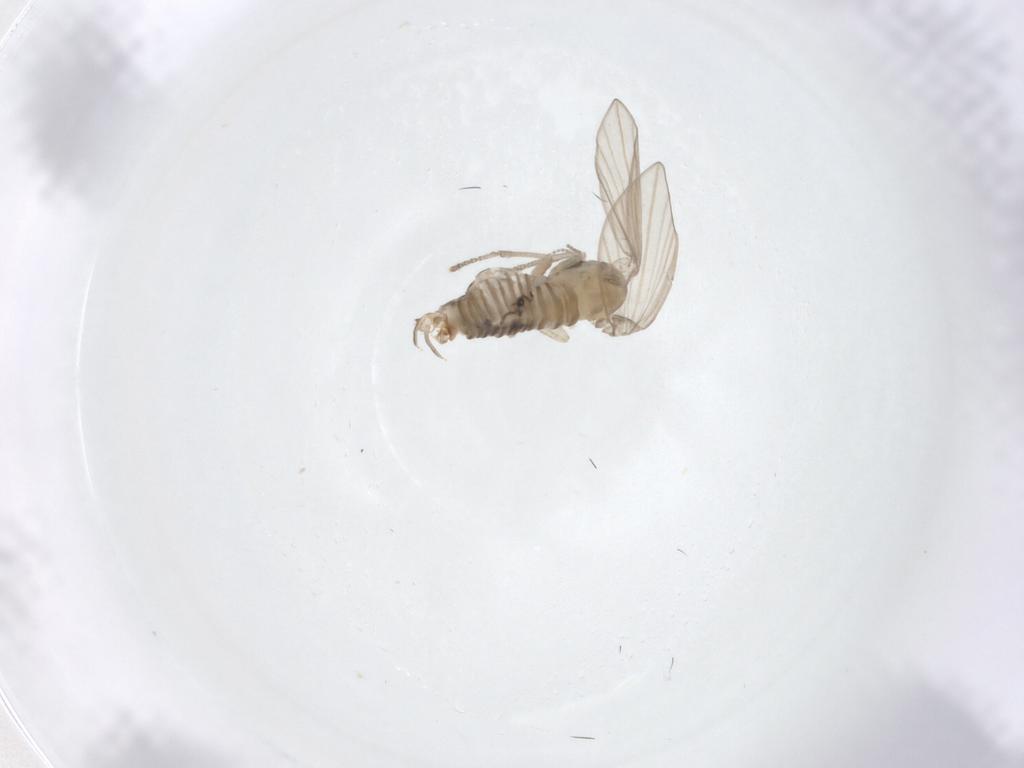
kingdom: Animalia
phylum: Arthropoda
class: Insecta
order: Diptera
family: Psychodidae
